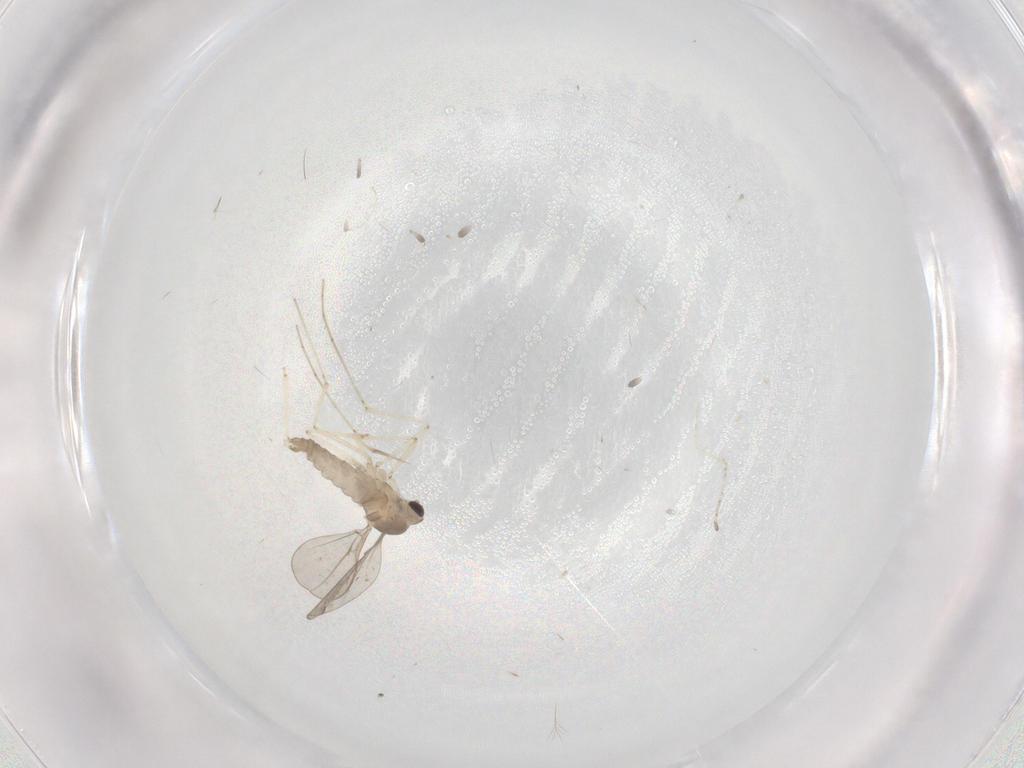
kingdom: Animalia
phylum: Arthropoda
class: Insecta
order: Diptera
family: Cecidomyiidae
